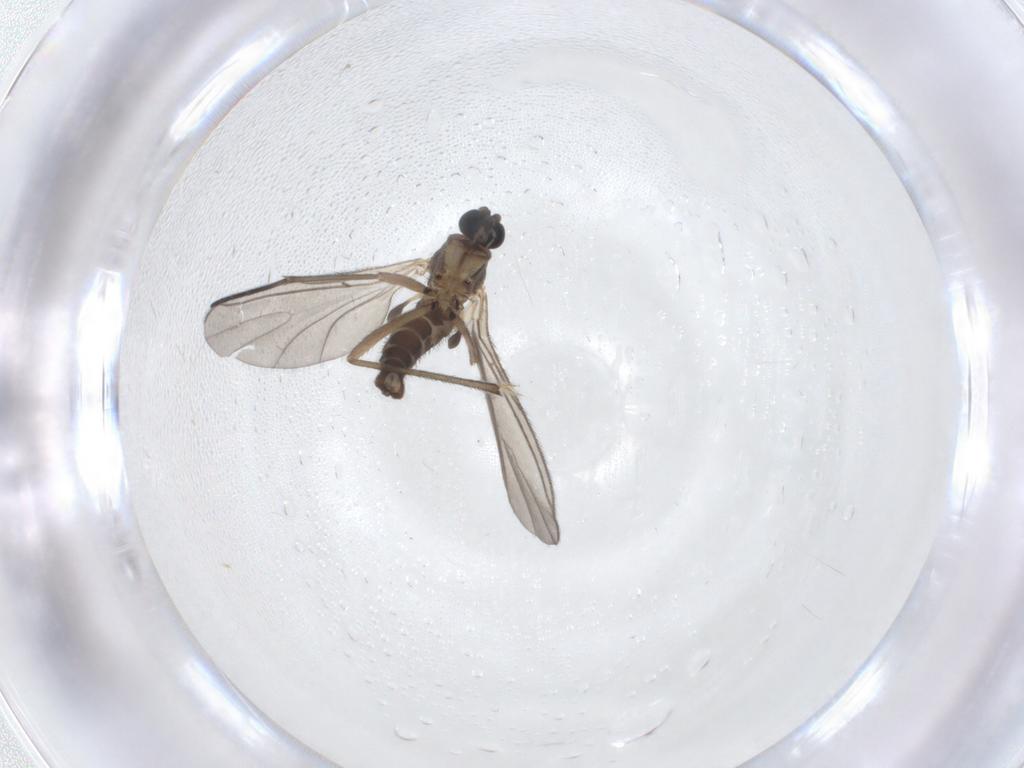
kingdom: Animalia
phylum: Arthropoda
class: Insecta
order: Diptera
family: Sciaridae
